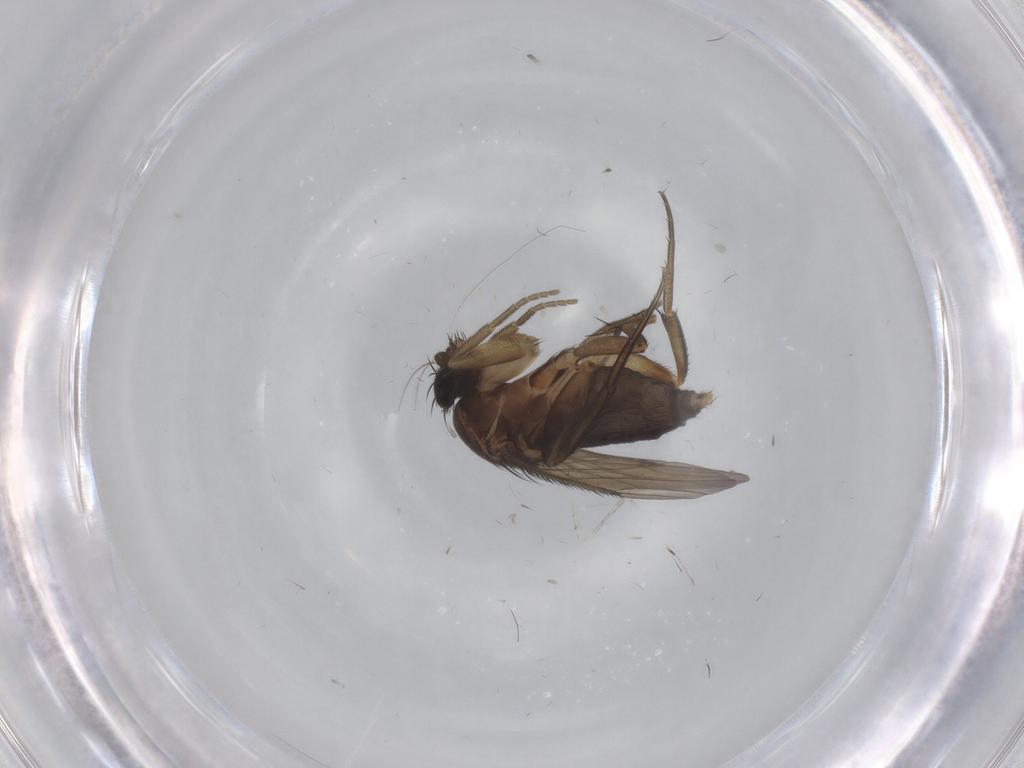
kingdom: Animalia
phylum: Arthropoda
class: Insecta
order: Diptera
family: Phoridae
